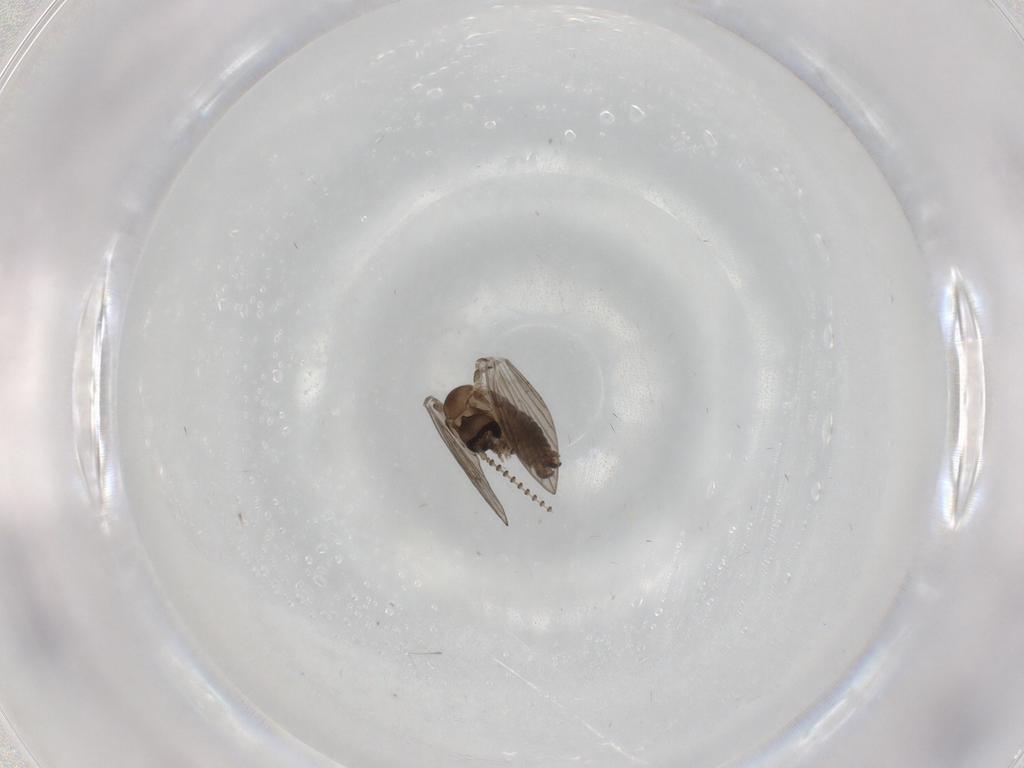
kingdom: Animalia
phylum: Arthropoda
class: Insecta
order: Diptera
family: Psychodidae
